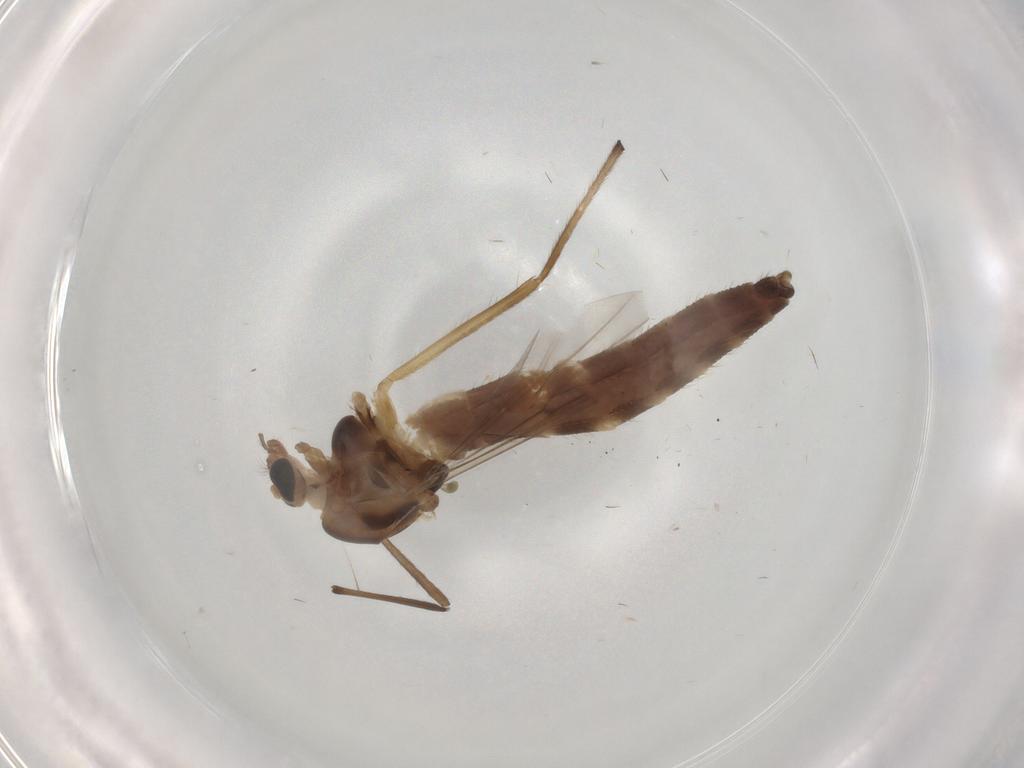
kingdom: Animalia
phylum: Arthropoda
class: Insecta
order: Diptera
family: Chironomidae
